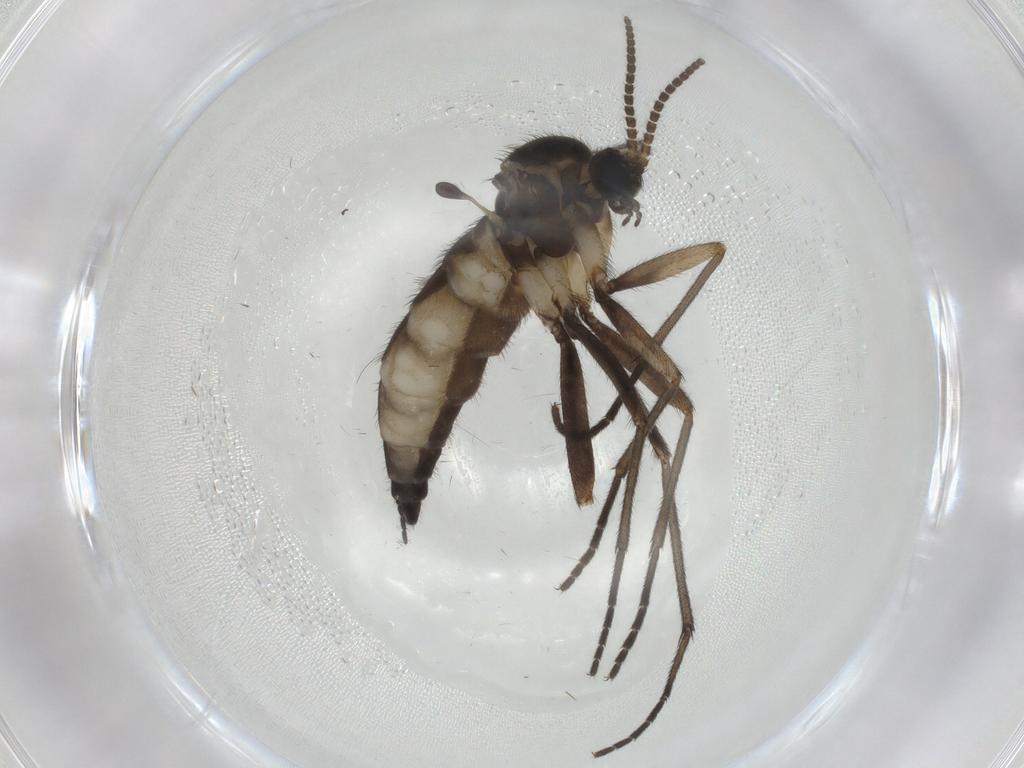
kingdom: Animalia
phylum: Arthropoda
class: Insecta
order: Diptera
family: Sciaridae
